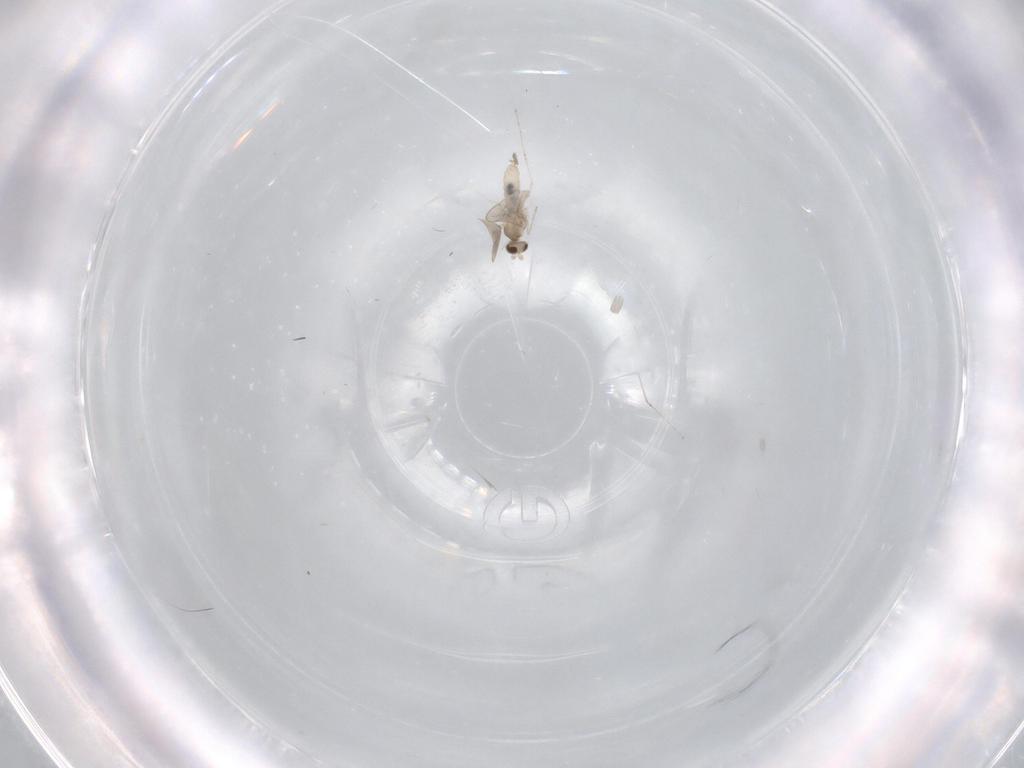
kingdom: Animalia
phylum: Arthropoda
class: Insecta
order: Diptera
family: Cecidomyiidae
